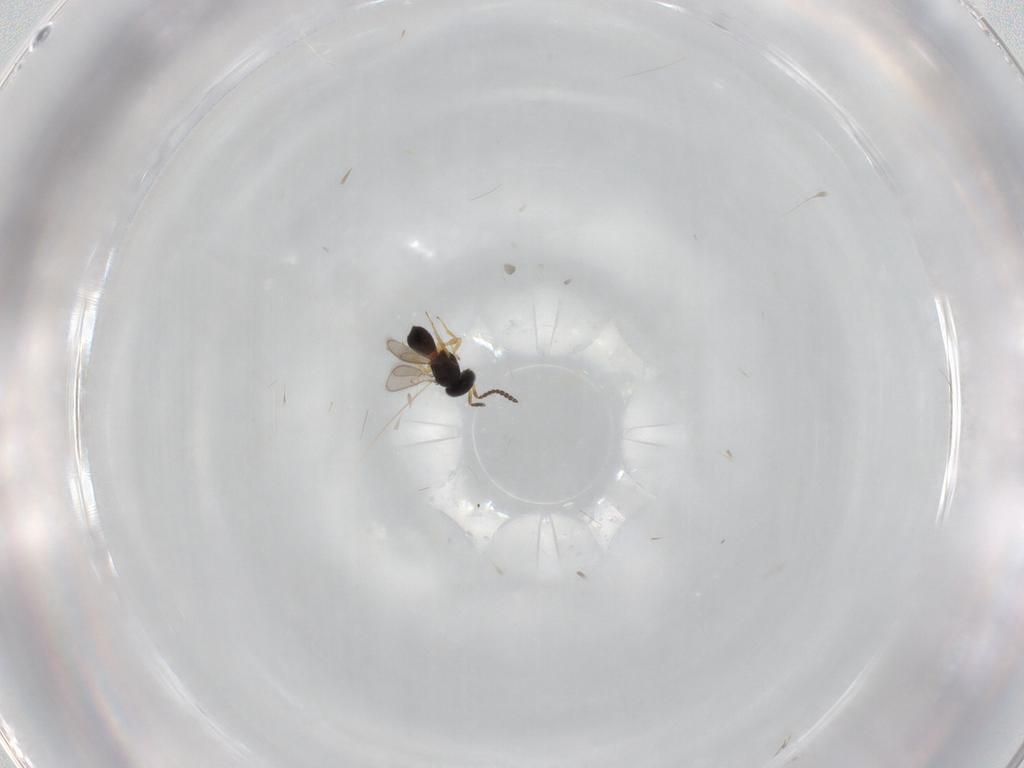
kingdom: Animalia
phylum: Arthropoda
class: Insecta
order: Hymenoptera
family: Scelionidae
